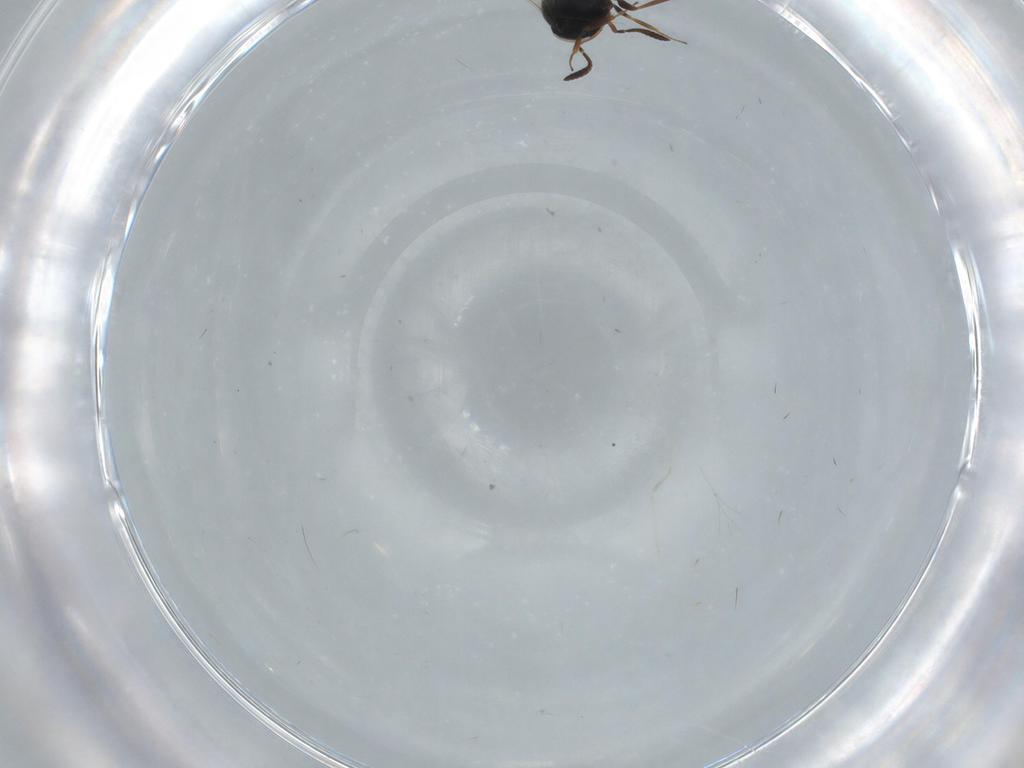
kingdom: Animalia
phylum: Arthropoda
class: Insecta
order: Hymenoptera
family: Scelionidae
